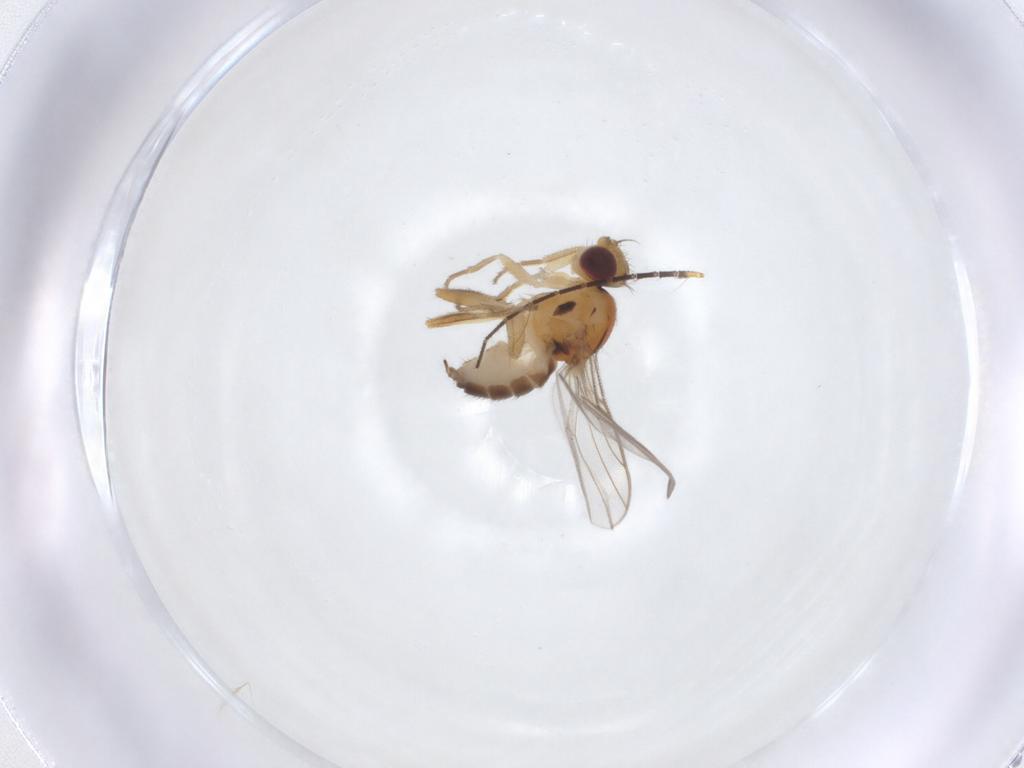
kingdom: Animalia
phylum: Arthropoda
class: Insecta
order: Diptera
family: Chloropidae
